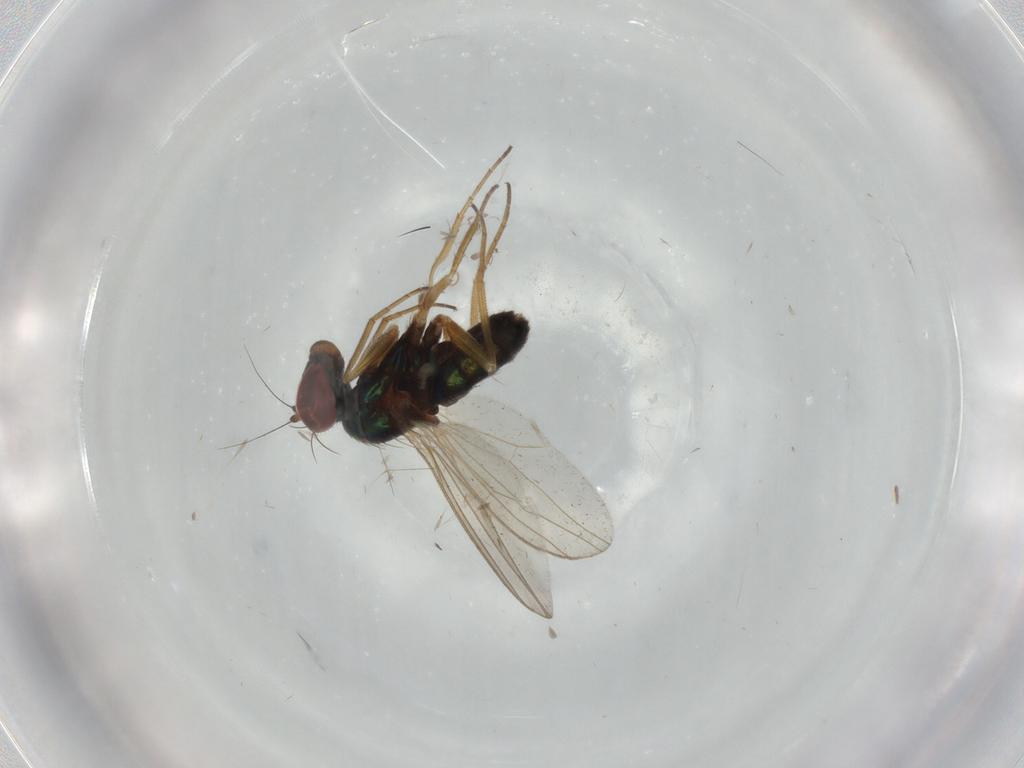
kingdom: Animalia
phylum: Arthropoda
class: Insecta
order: Diptera
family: Dolichopodidae
